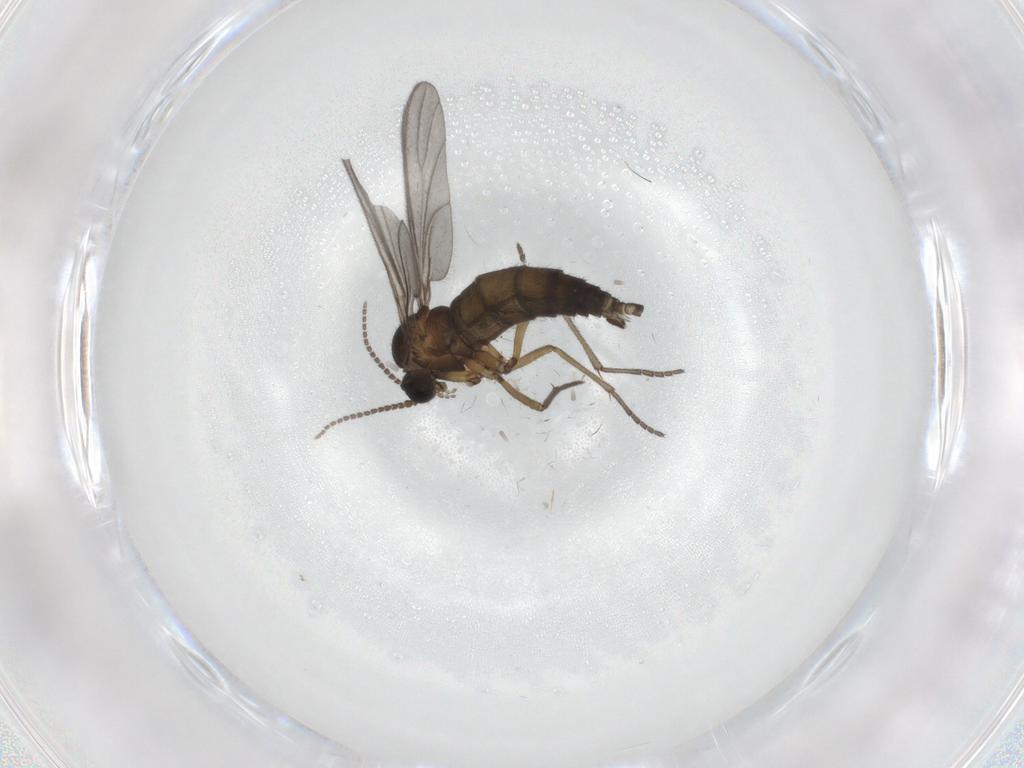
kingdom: Animalia
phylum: Arthropoda
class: Insecta
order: Diptera
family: Chironomidae
